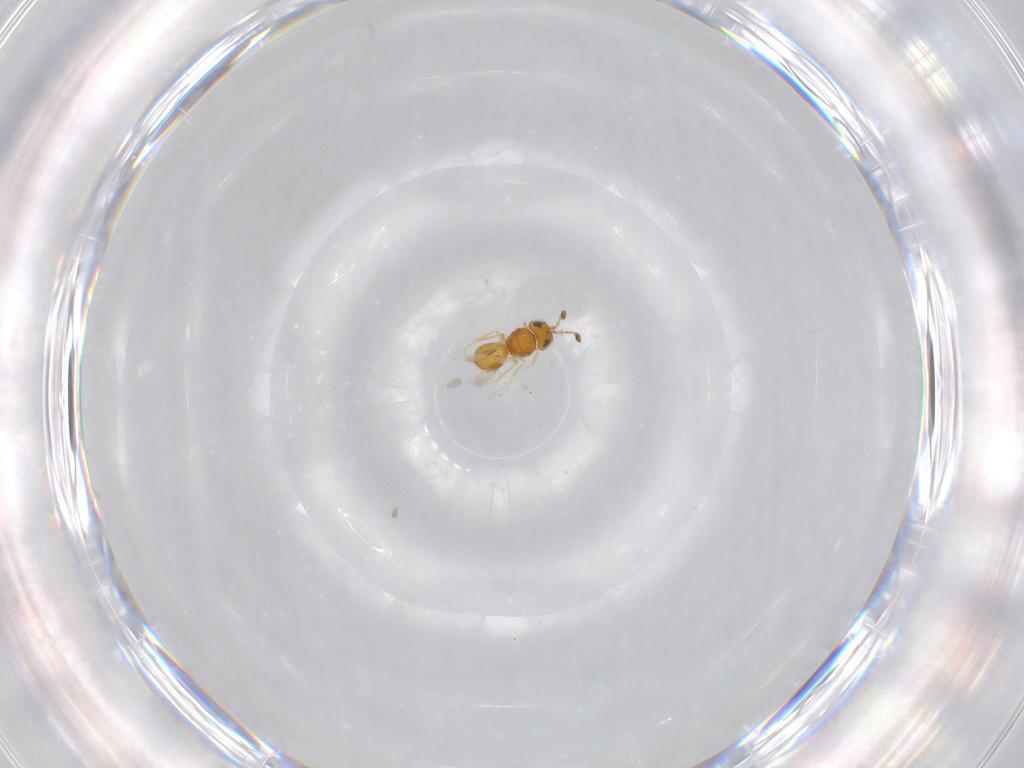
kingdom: Animalia
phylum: Arthropoda
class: Insecta
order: Hymenoptera
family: Scelionidae
